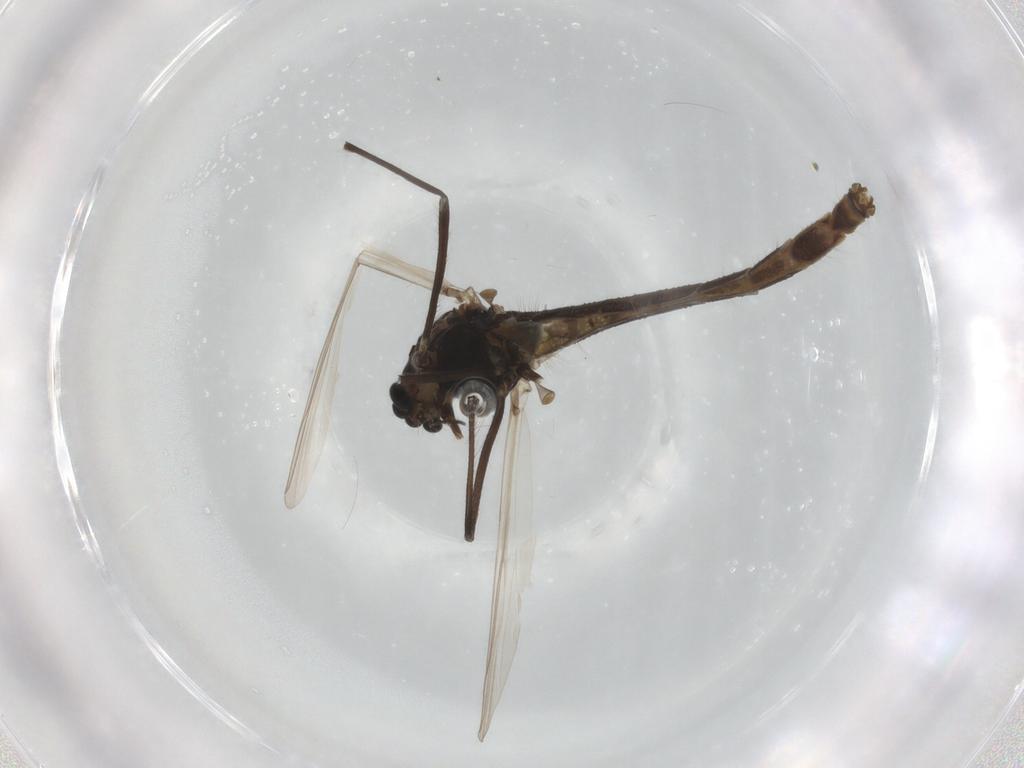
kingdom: Animalia
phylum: Arthropoda
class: Insecta
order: Diptera
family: Chironomidae
